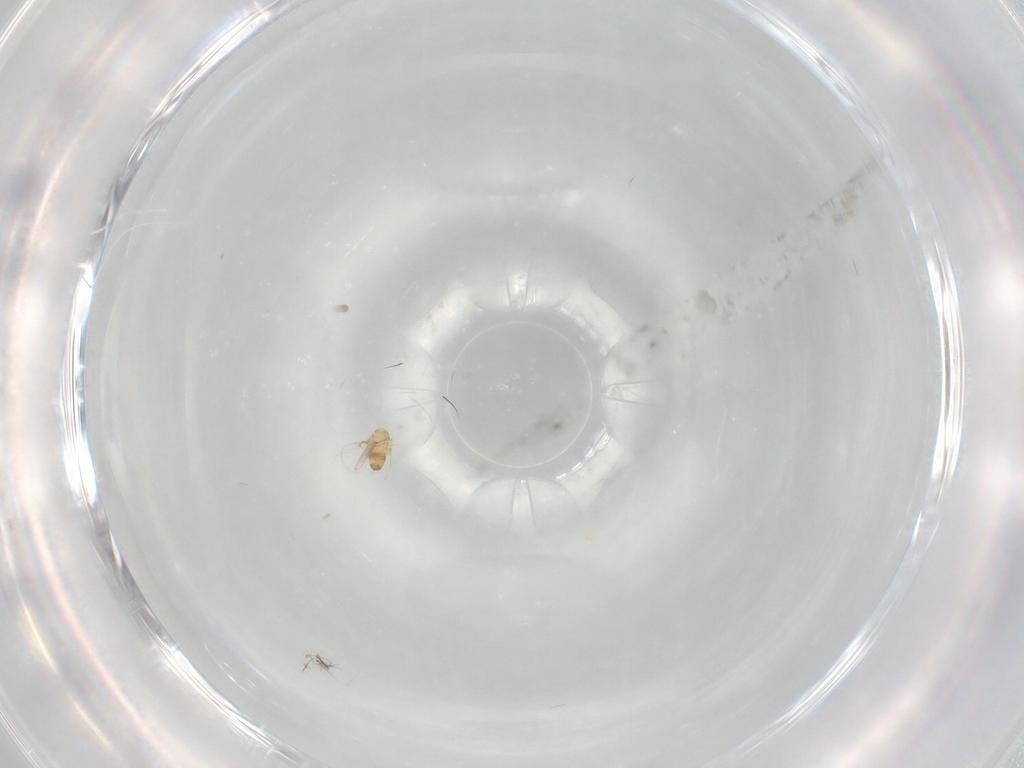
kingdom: Animalia
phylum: Arthropoda
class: Insecta
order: Hymenoptera
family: Trichogrammatidae
